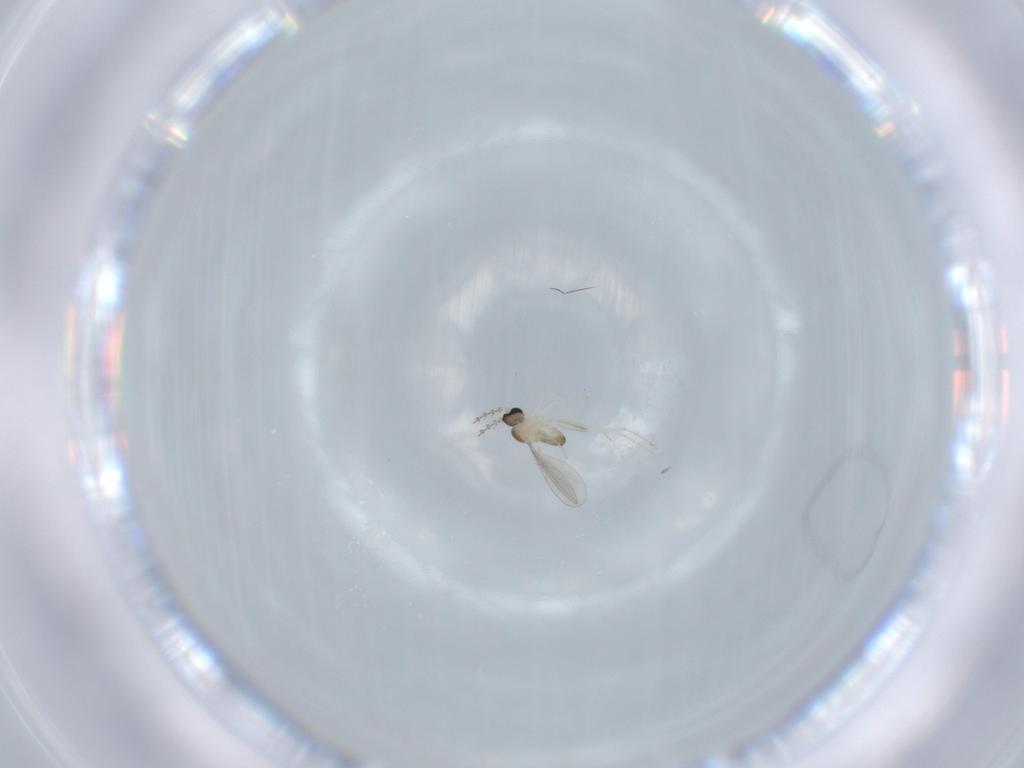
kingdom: Animalia
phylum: Arthropoda
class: Insecta
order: Diptera
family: Cecidomyiidae
